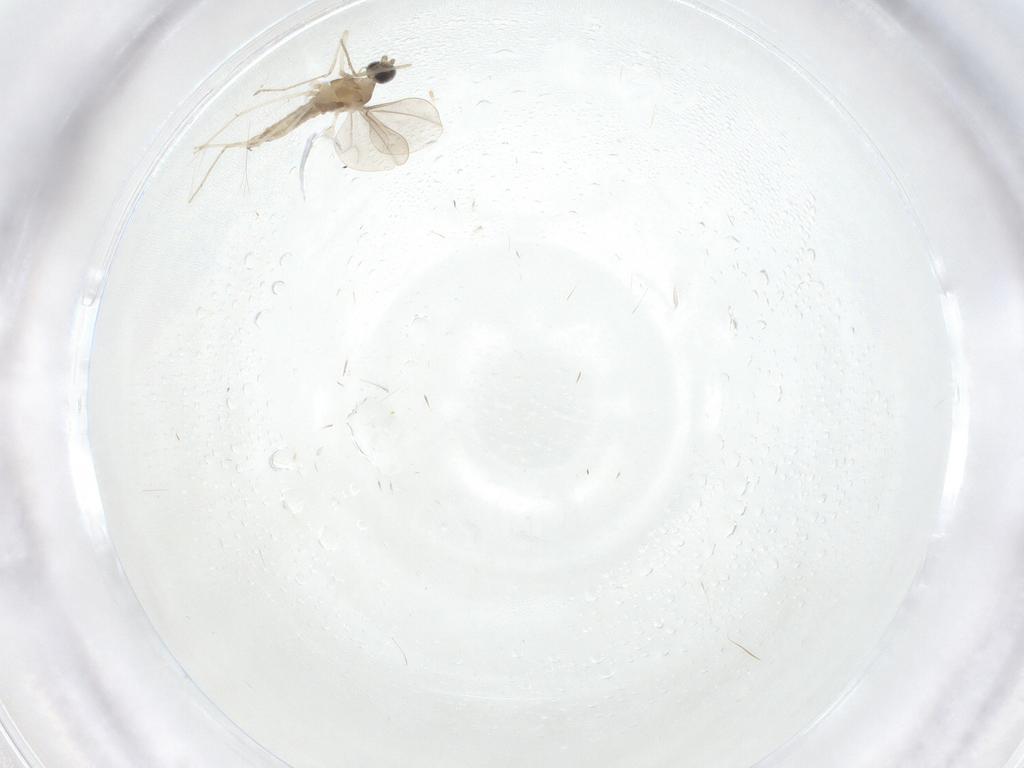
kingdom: Animalia
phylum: Arthropoda
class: Insecta
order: Diptera
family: Cecidomyiidae
